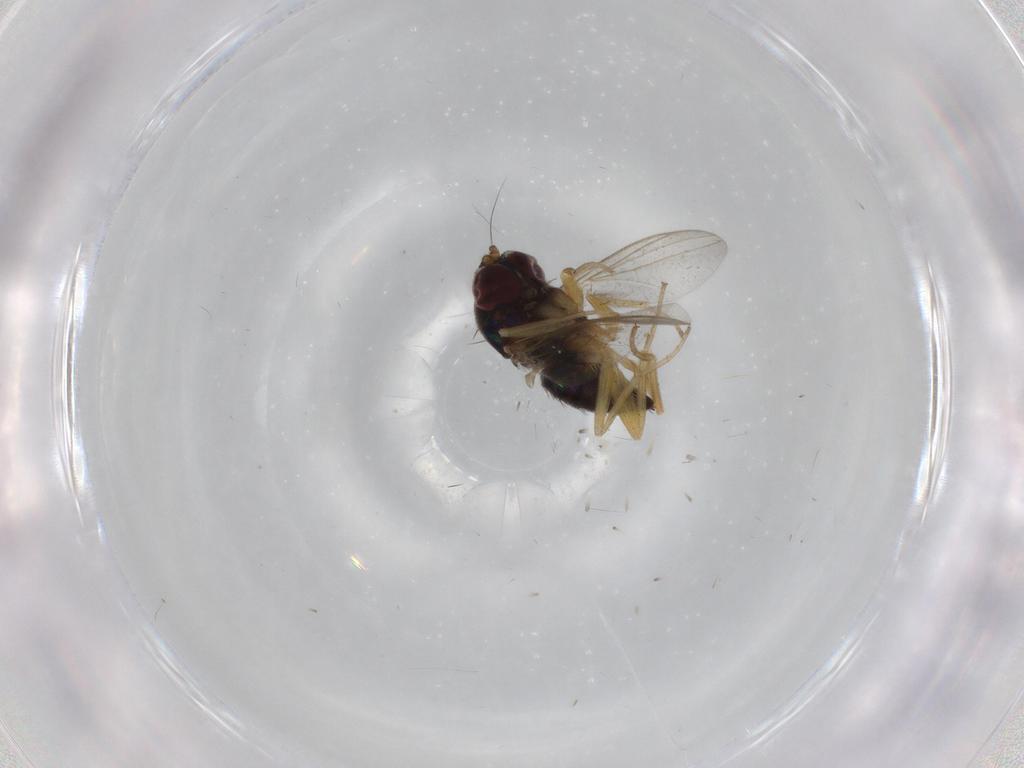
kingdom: Animalia
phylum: Arthropoda
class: Insecta
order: Diptera
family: Dolichopodidae
